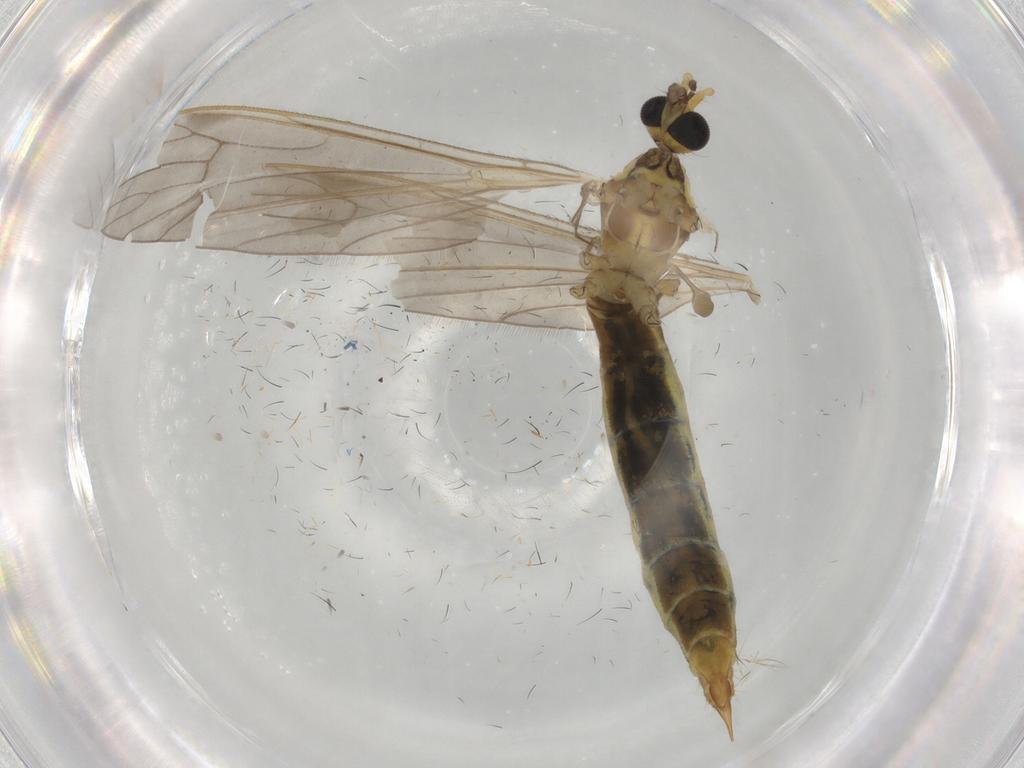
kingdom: Animalia
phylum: Arthropoda
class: Insecta
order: Diptera
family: Limoniidae
